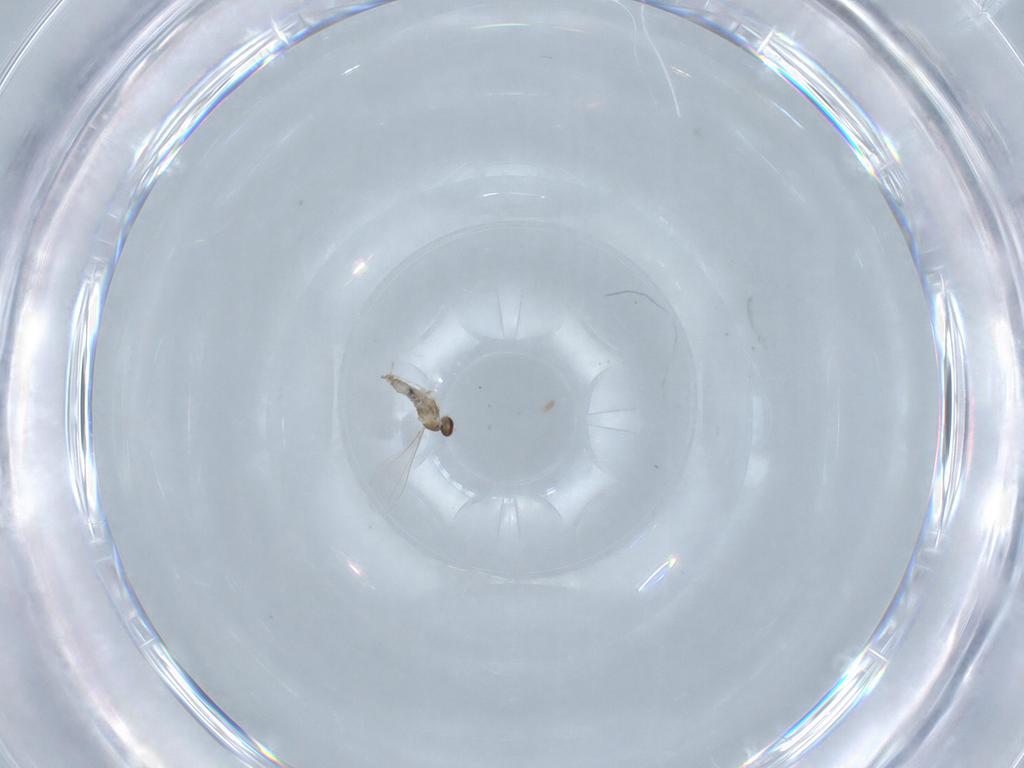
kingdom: Animalia
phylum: Arthropoda
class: Insecta
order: Diptera
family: Cecidomyiidae
